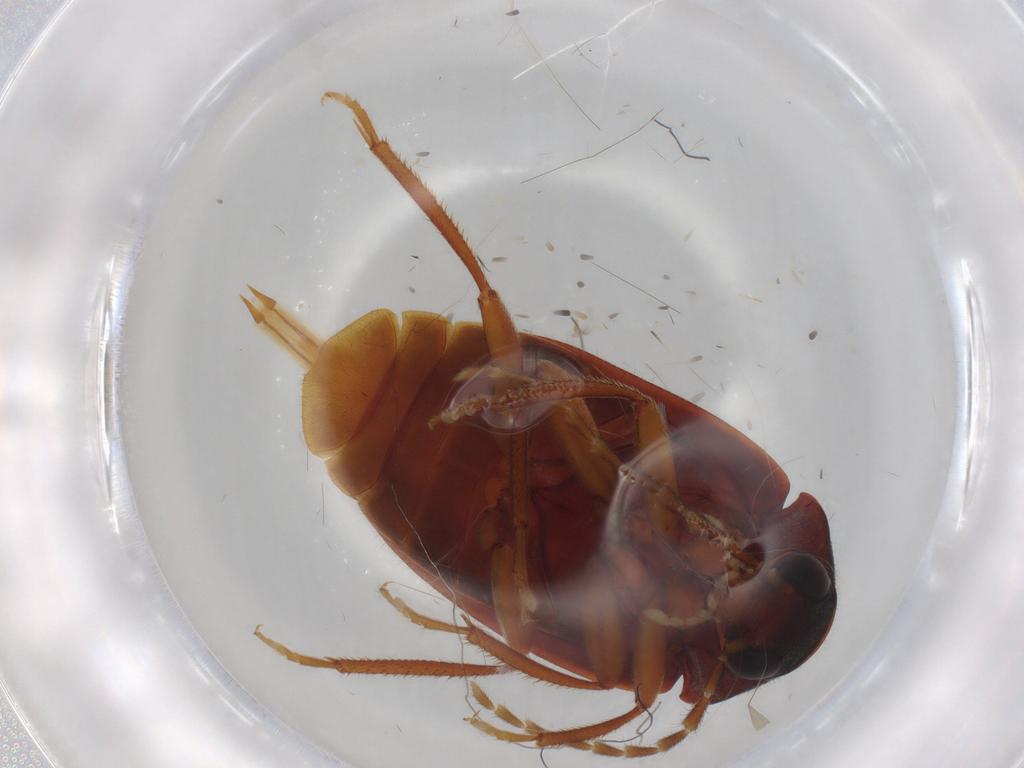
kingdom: Animalia
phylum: Arthropoda
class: Insecta
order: Coleoptera
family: Ptilodactylidae
